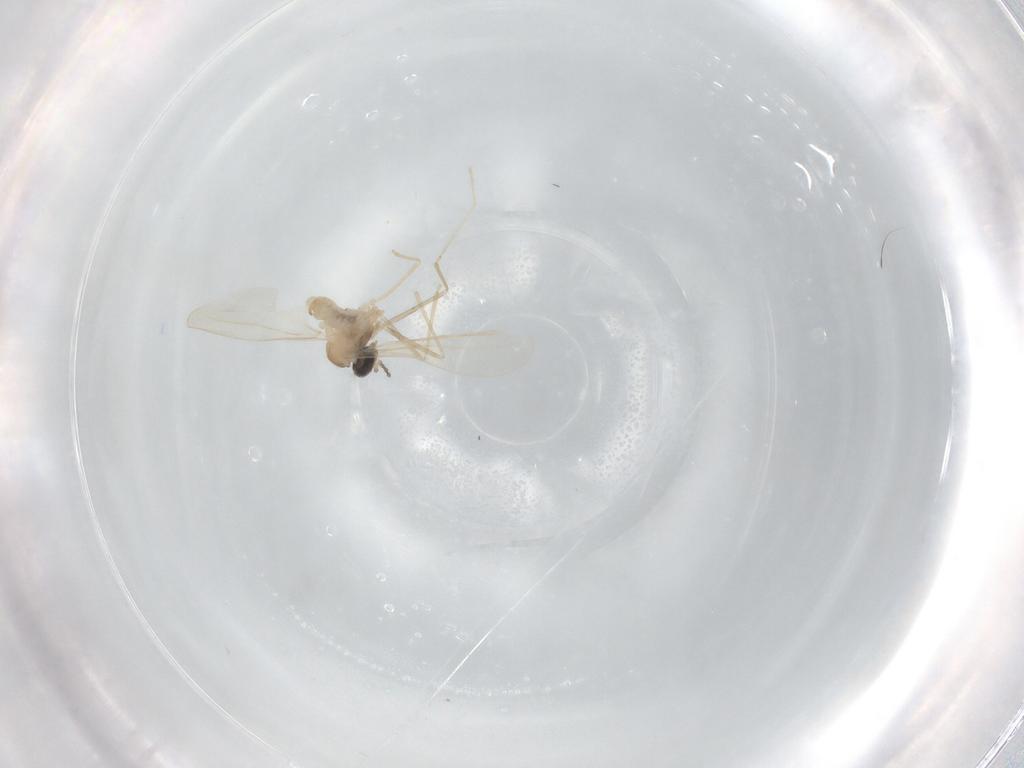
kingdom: Animalia
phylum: Arthropoda
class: Insecta
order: Diptera
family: Cecidomyiidae
